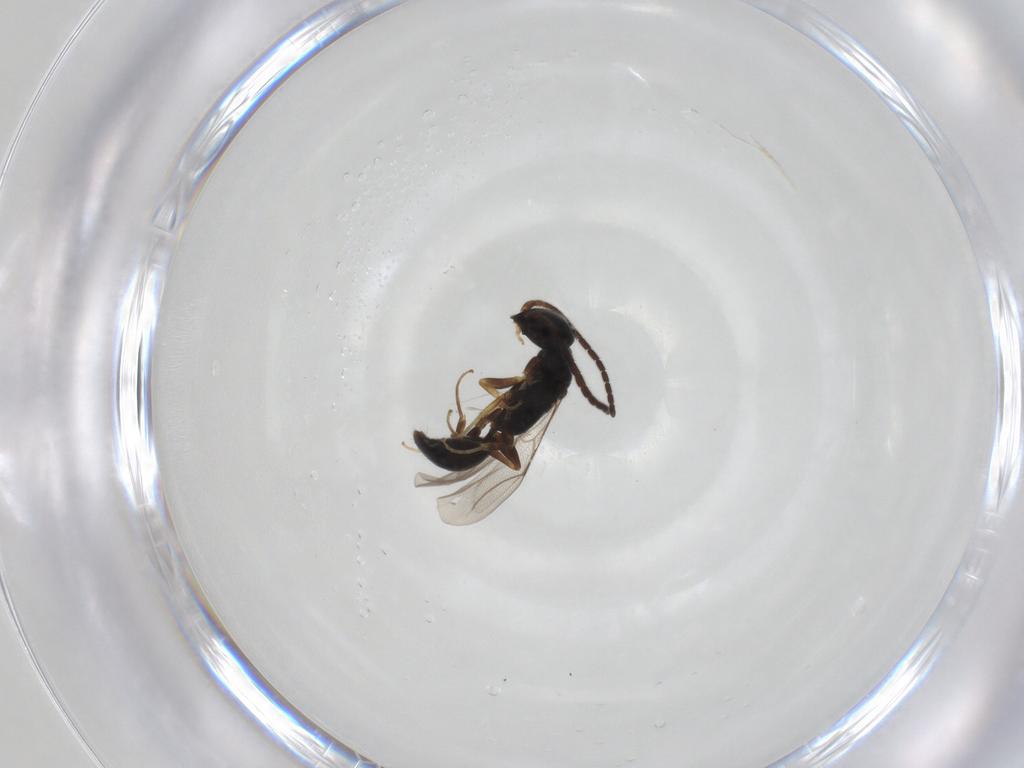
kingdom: Animalia
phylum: Arthropoda
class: Insecta
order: Hymenoptera
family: Bethylidae
